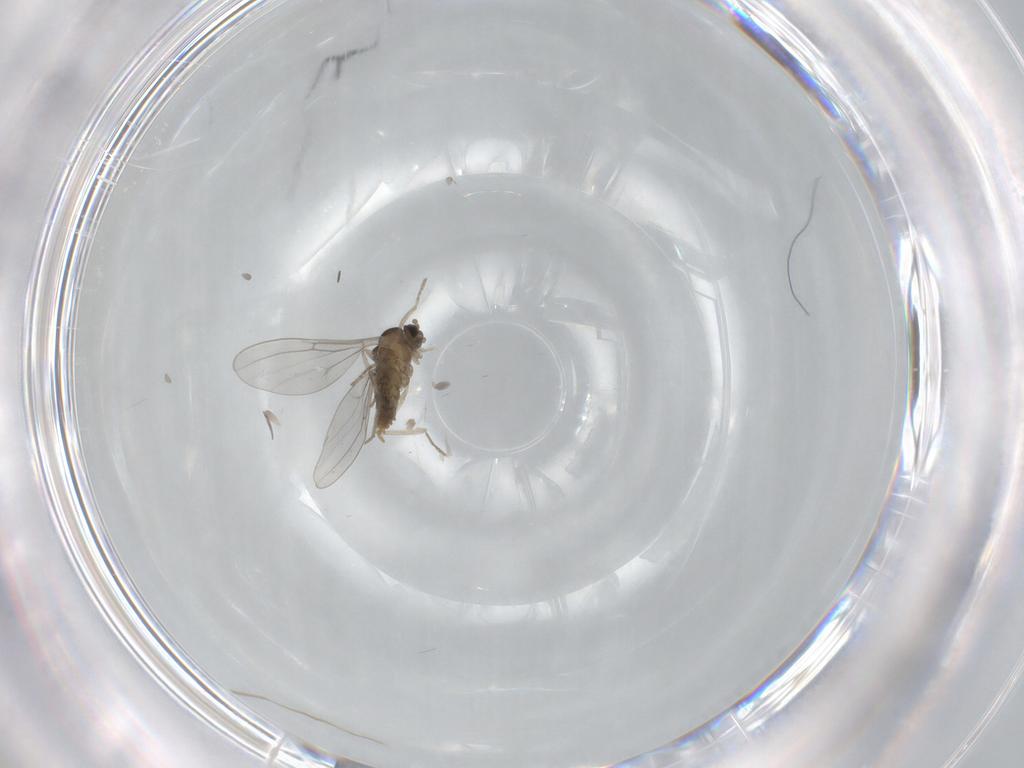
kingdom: Animalia
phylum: Arthropoda
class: Insecta
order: Diptera
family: Cecidomyiidae
